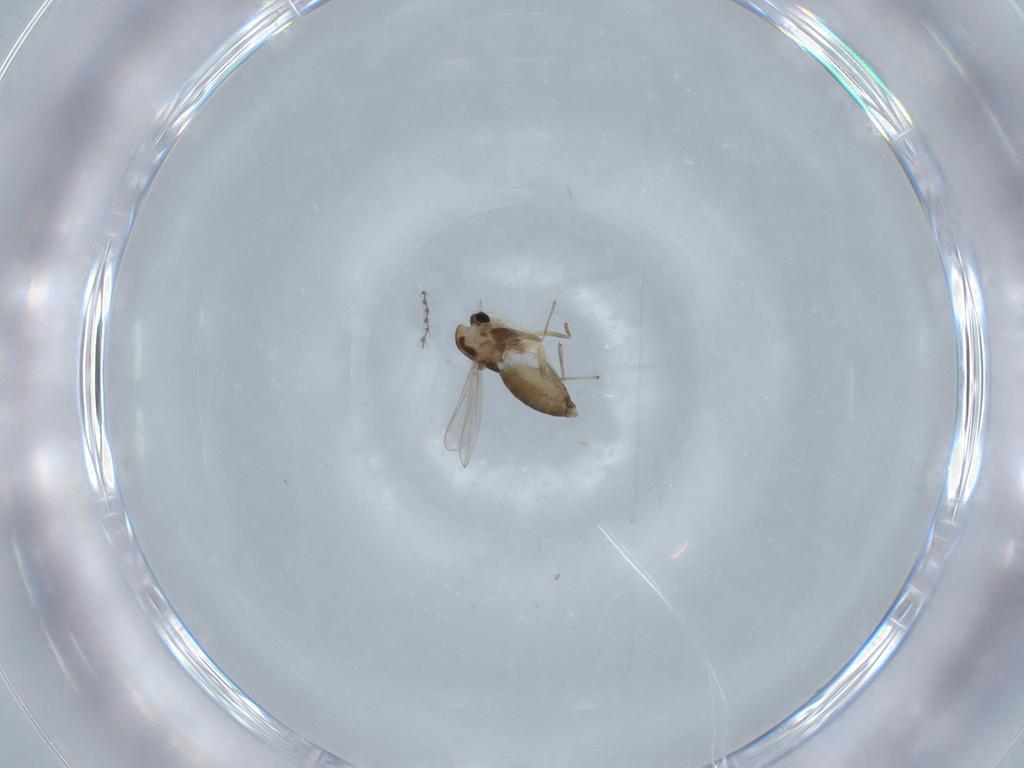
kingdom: Animalia
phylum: Arthropoda
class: Insecta
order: Diptera
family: Chironomidae
